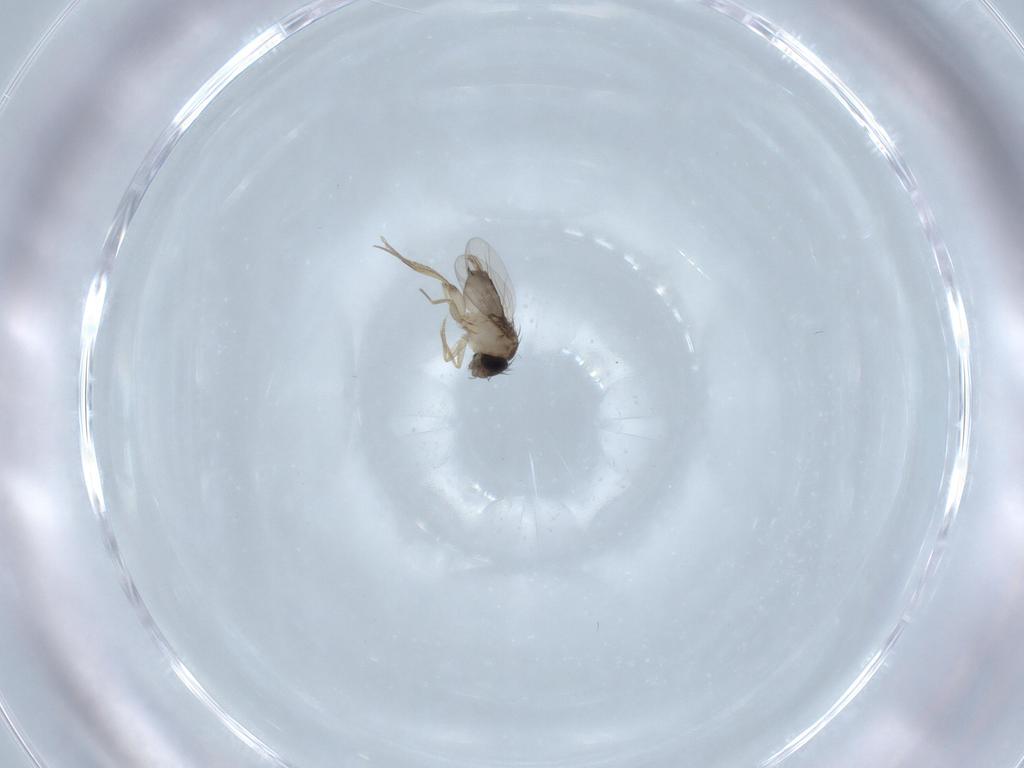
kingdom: Animalia
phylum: Arthropoda
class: Insecta
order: Diptera
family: Phoridae
